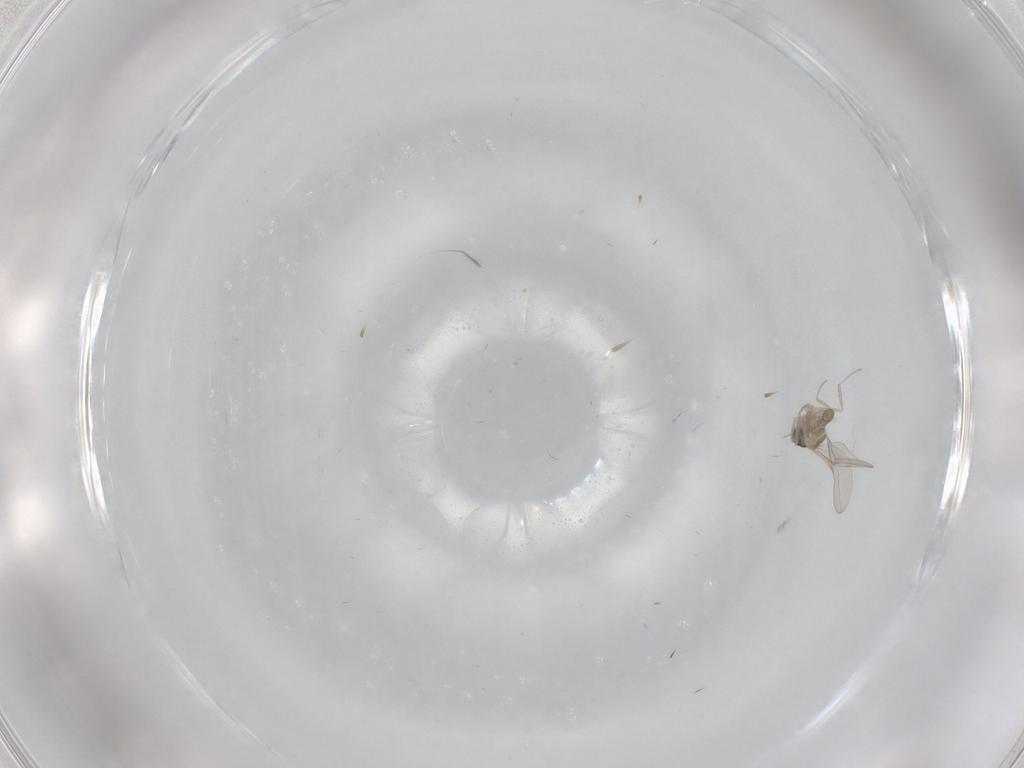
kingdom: Animalia
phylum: Arthropoda
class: Insecta
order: Diptera
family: Cecidomyiidae
